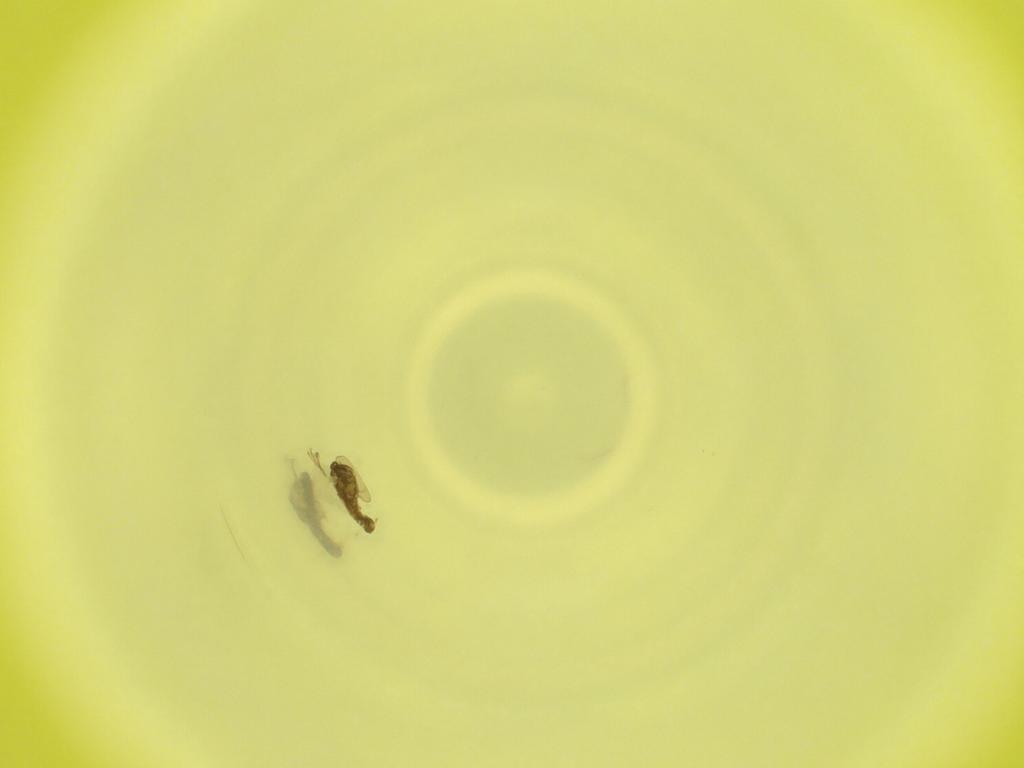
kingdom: Animalia
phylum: Arthropoda
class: Insecta
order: Diptera
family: Cecidomyiidae
